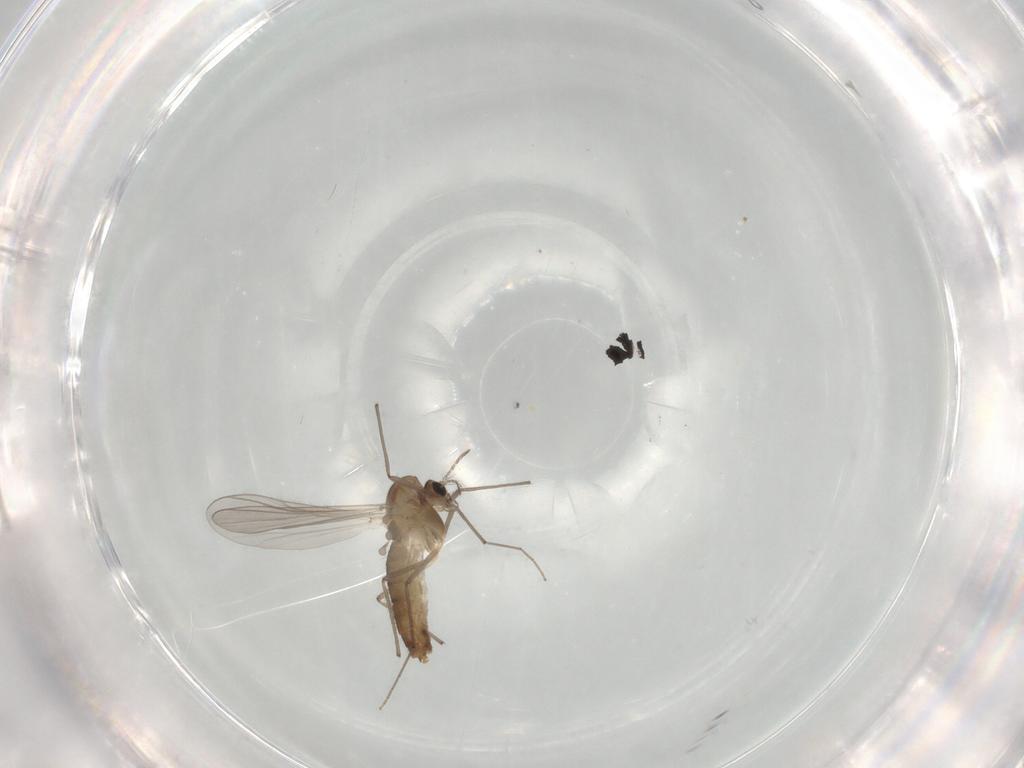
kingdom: Animalia
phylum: Arthropoda
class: Insecta
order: Diptera
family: Chironomidae
